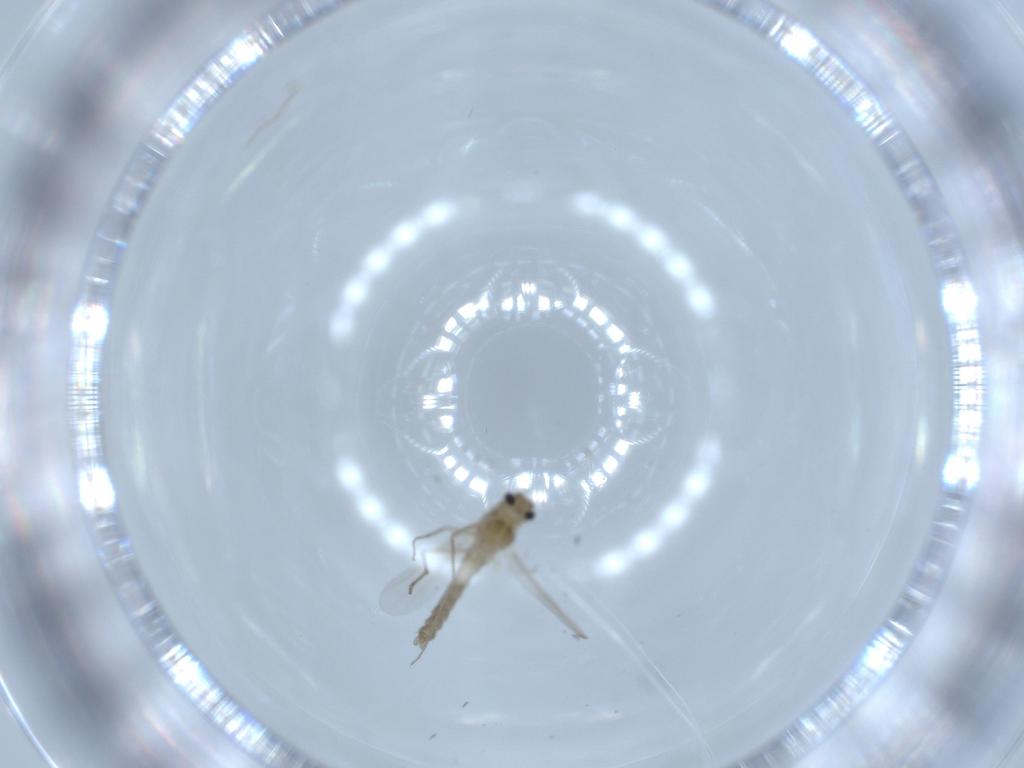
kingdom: Animalia
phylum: Arthropoda
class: Insecta
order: Diptera
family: Chironomidae
